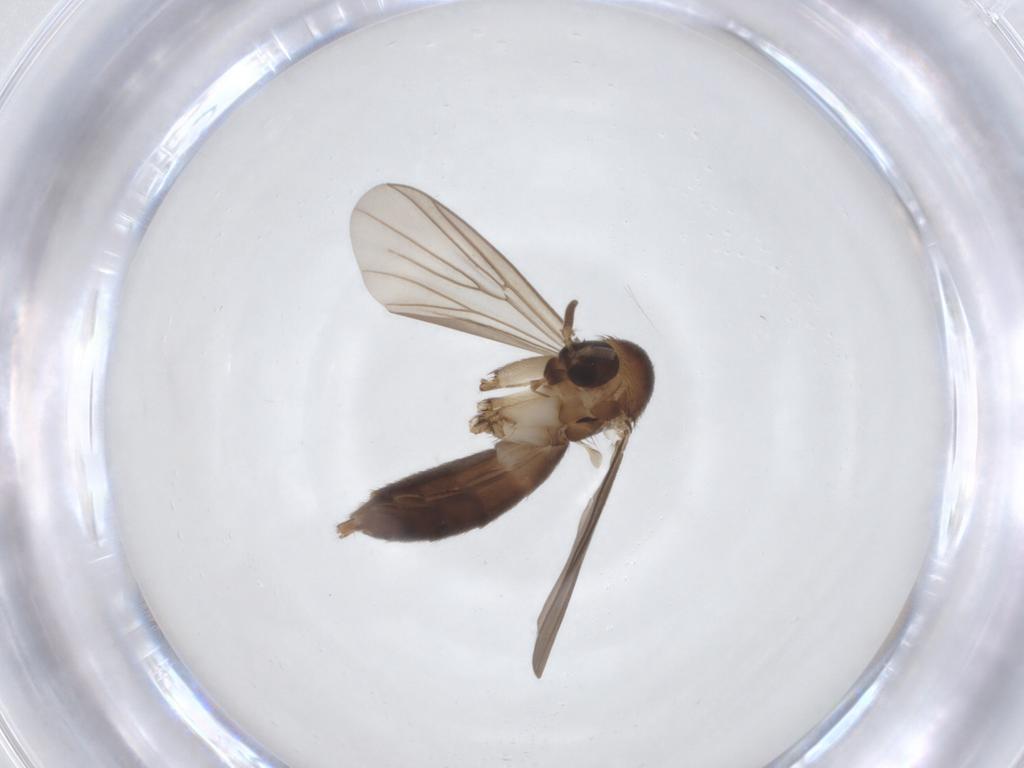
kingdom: Animalia
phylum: Arthropoda
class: Insecta
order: Diptera
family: Mycetophilidae
